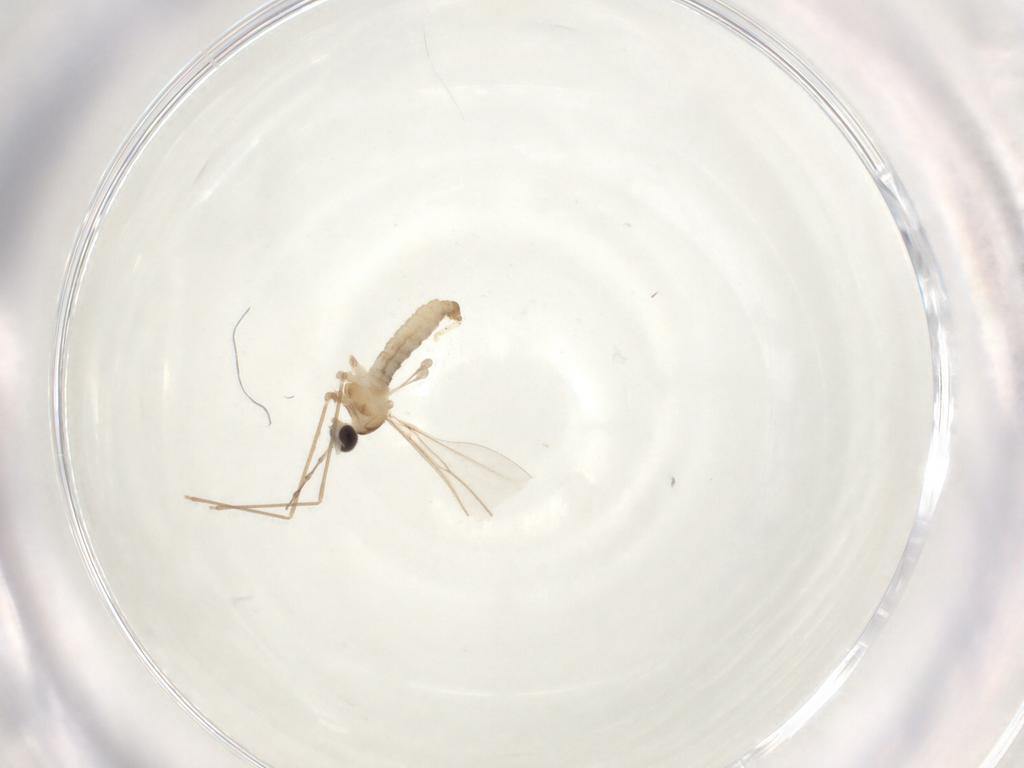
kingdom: Animalia
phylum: Arthropoda
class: Insecta
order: Diptera
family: Cecidomyiidae
